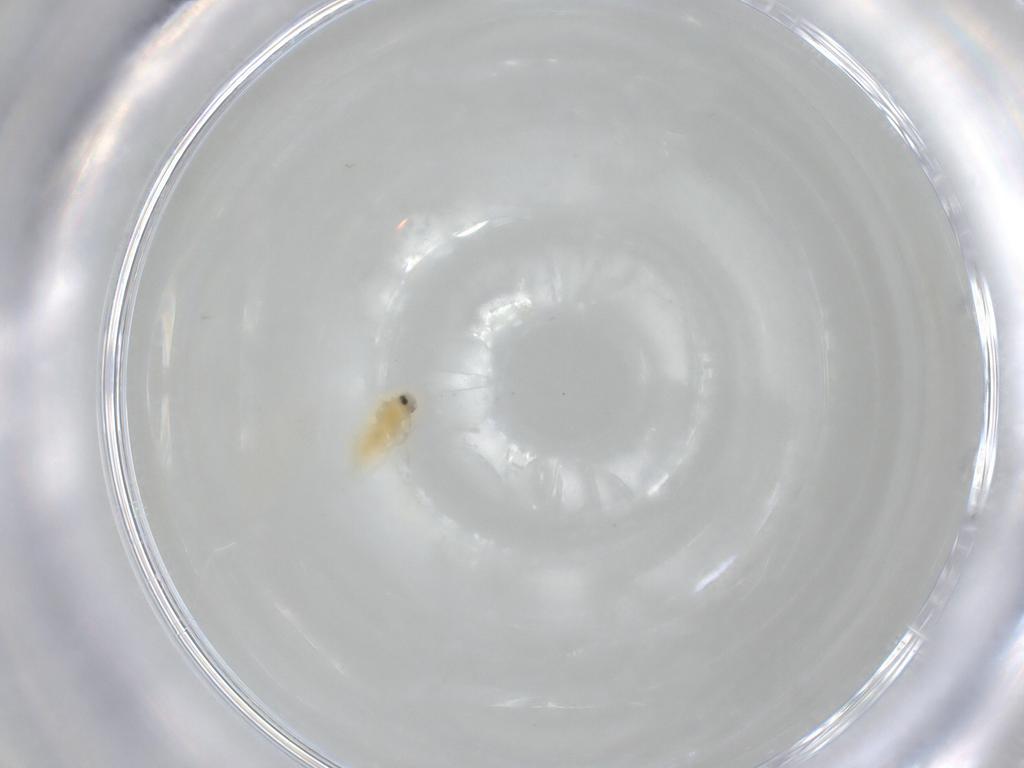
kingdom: Animalia
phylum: Arthropoda
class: Insecta
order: Hemiptera
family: Aleyrodidae
